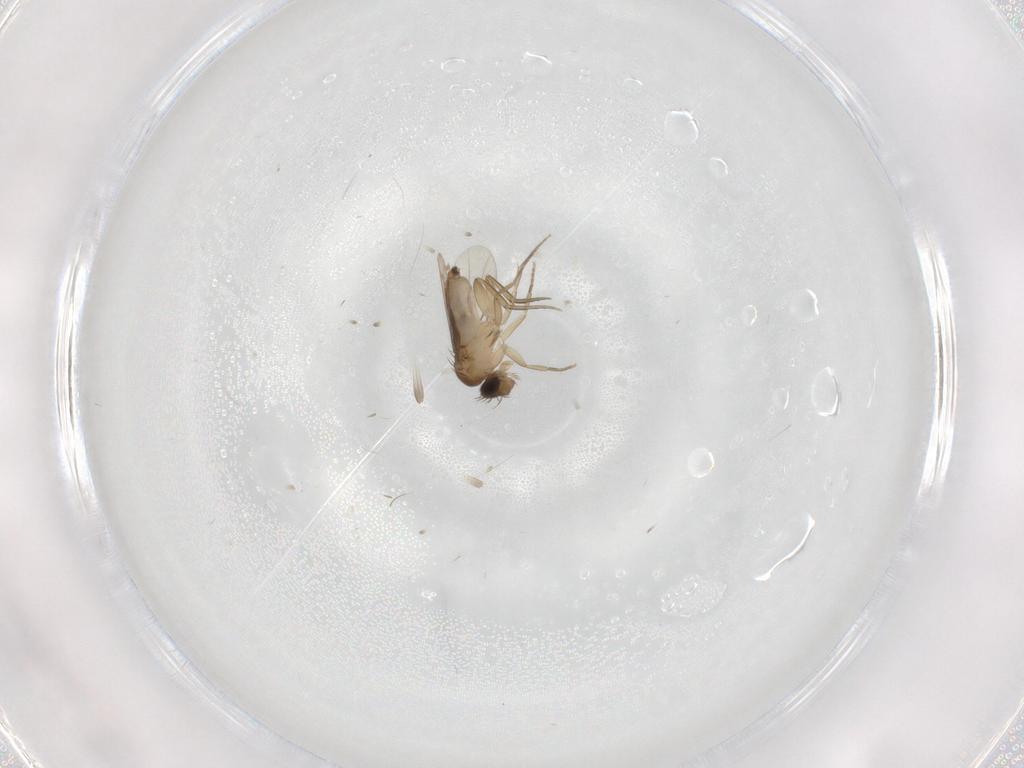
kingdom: Animalia
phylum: Arthropoda
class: Insecta
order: Diptera
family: Phoridae
